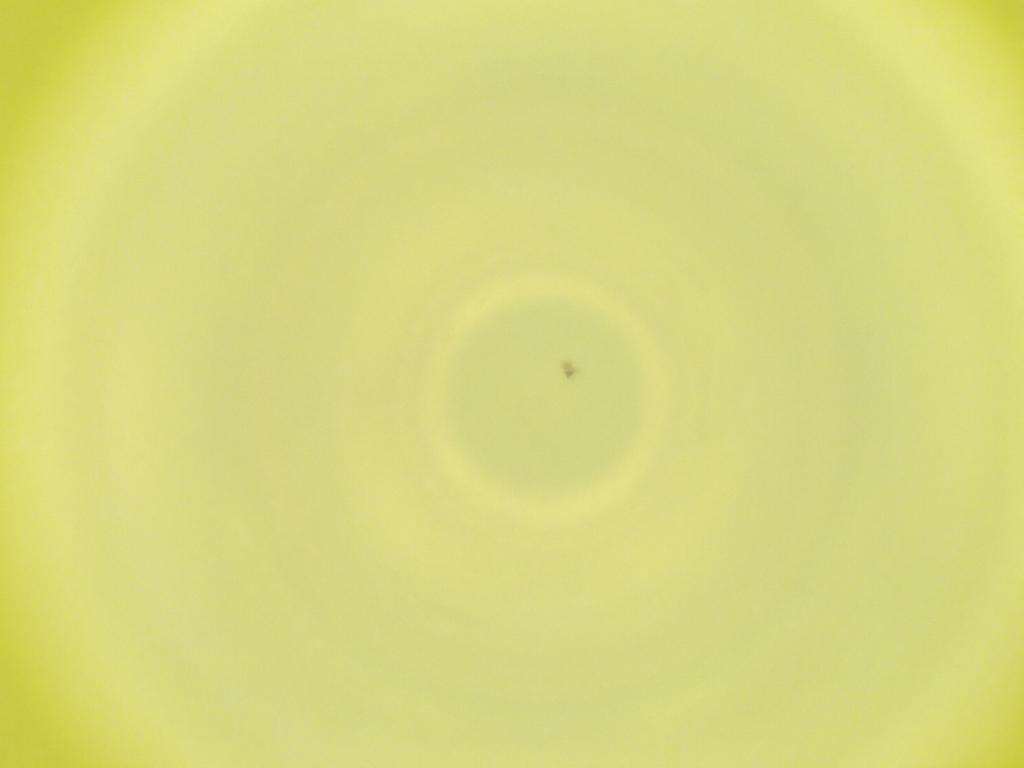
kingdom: Animalia
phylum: Arthropoda
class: Insecta
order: Diptera
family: Cecidomyiidae
